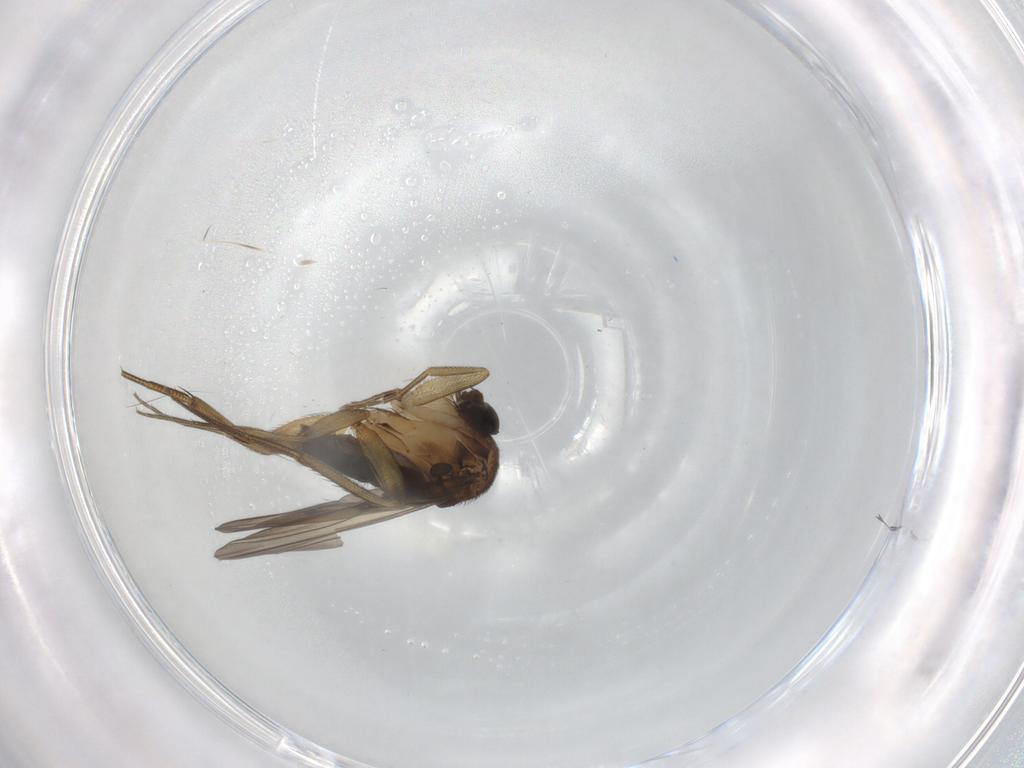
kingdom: Animalia
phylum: Arthropoda
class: Insecta
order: Diptera
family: Phoridae
